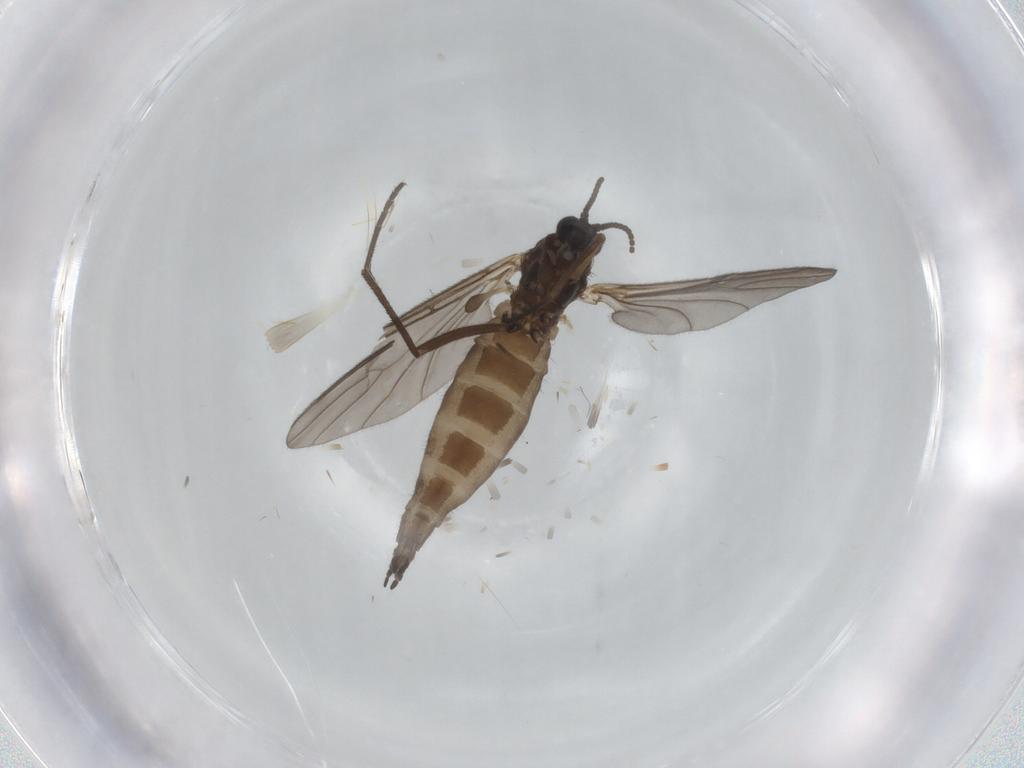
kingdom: Animalia
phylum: Arthropoda
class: Insecta
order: Diptera
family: Sciaridae
